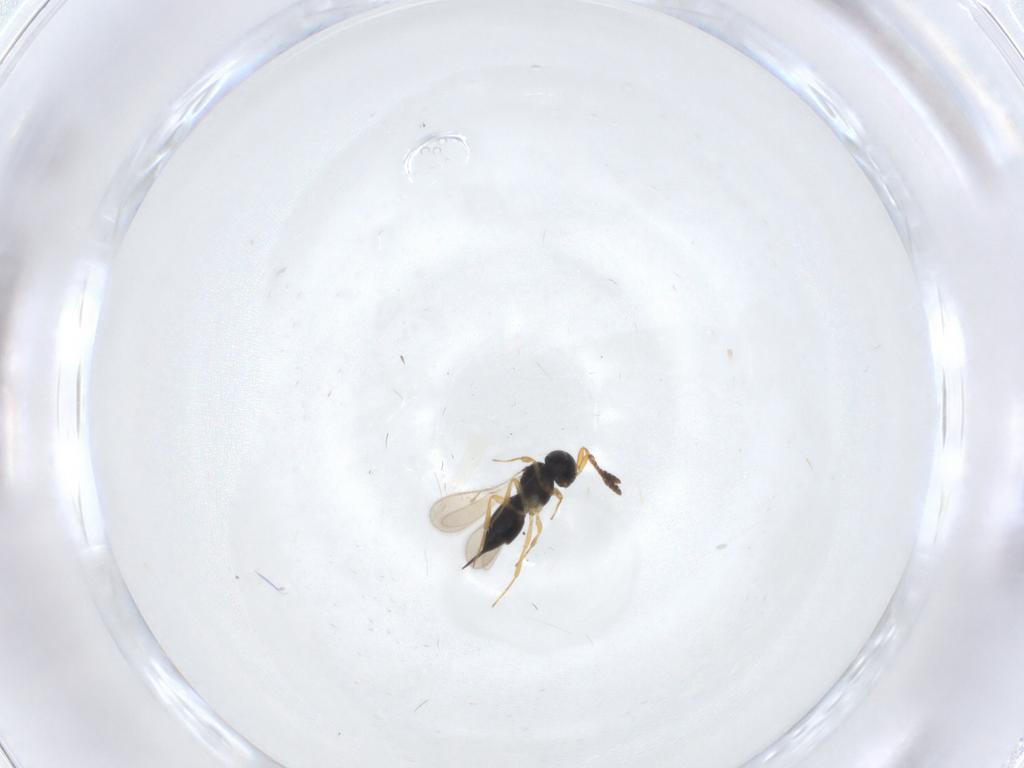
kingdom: Animalia
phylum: Arthropoda
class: Insecta
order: Hymenoptera
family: Scelionidae
